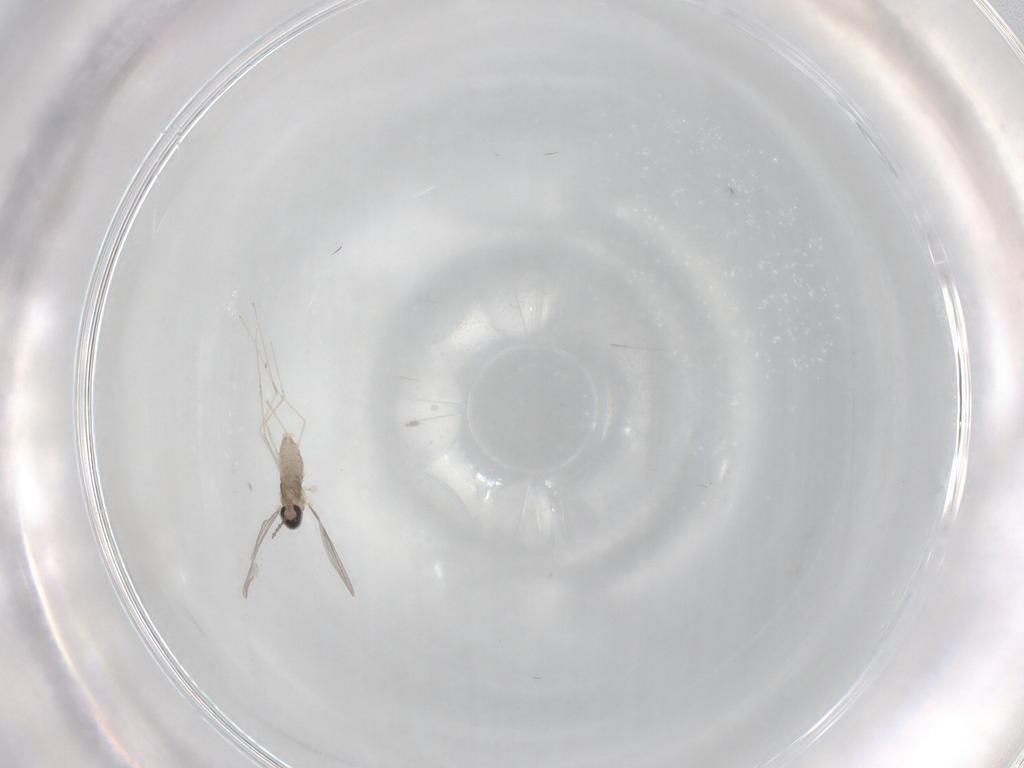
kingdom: Animalia
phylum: Arthropoda
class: Insecta
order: Diptera
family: Cecidomyiidae
